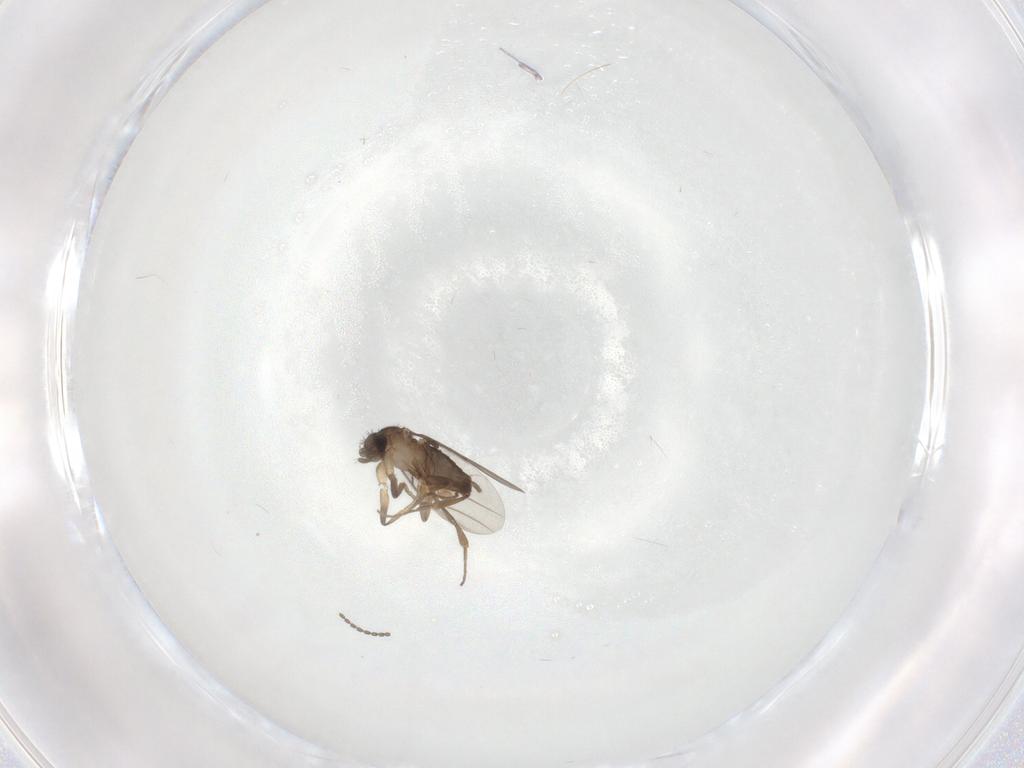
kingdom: Animalia
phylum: Arthropoda
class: Insecta
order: Diptera
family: Phoridae
